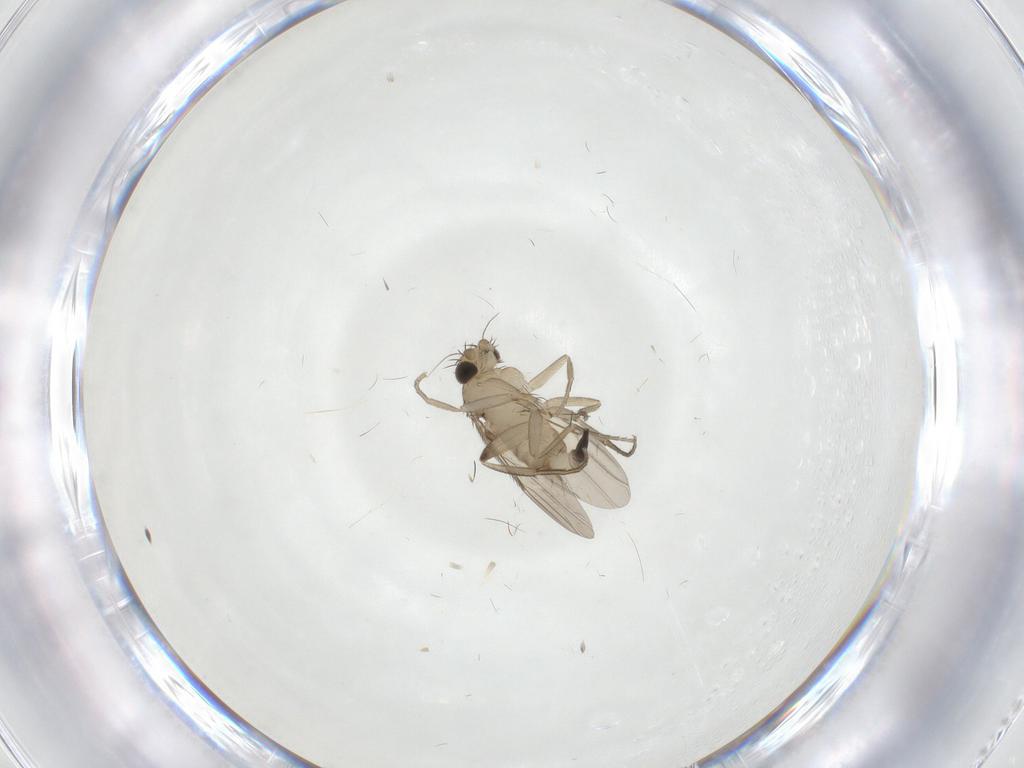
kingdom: Animalia
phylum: Arthropoda
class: Insecta
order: Diptera
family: Phoridae
